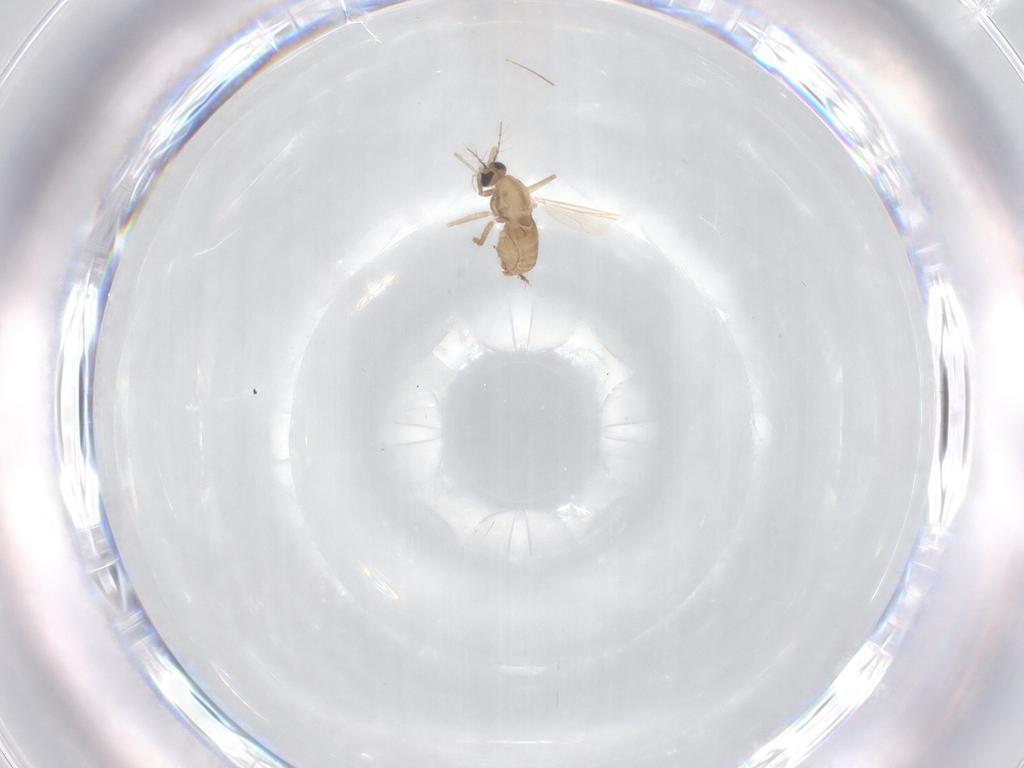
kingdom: Animalia
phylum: Arthropoda
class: Insecta
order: Diptera
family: Chironomidae
